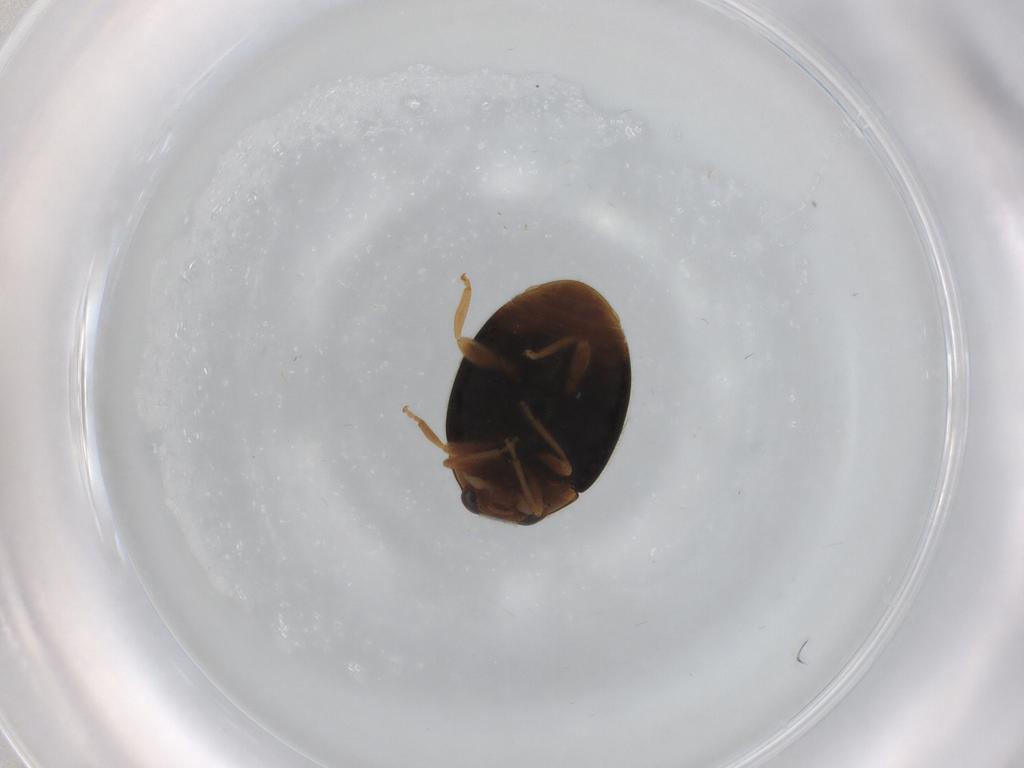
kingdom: Animalia
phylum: Arthropoda
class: Insecta
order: Coleoptera
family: Coccinellidae
